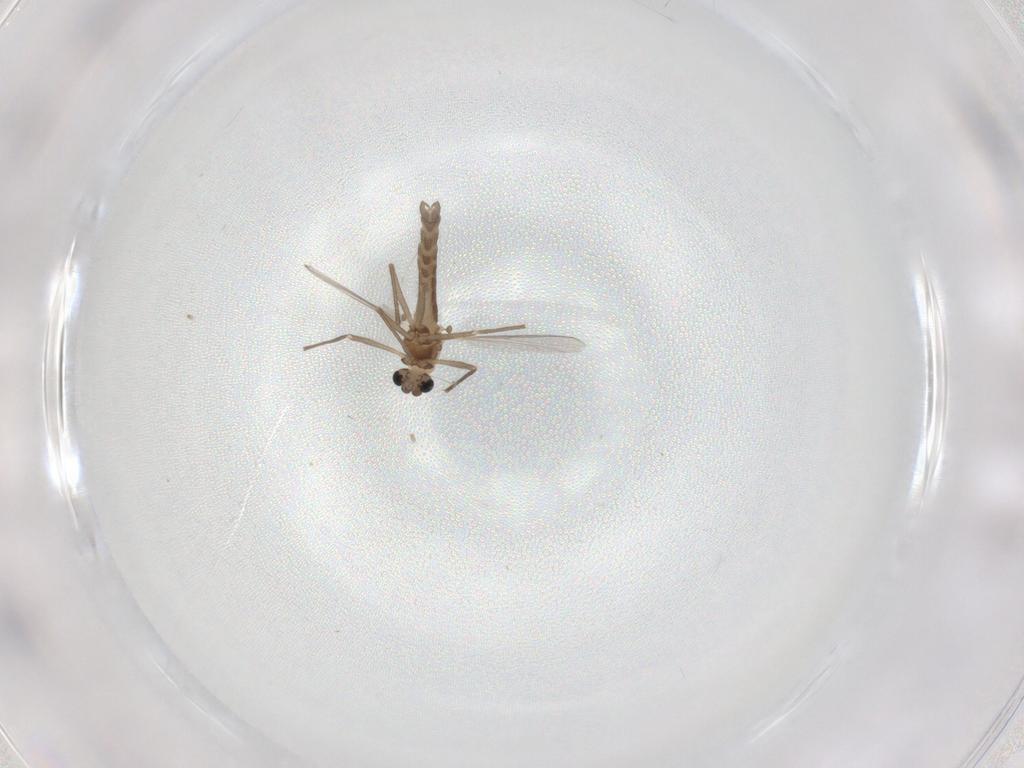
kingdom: Animalia
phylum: Arthropoda
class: Insecta
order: Diptera
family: Chironomidae
